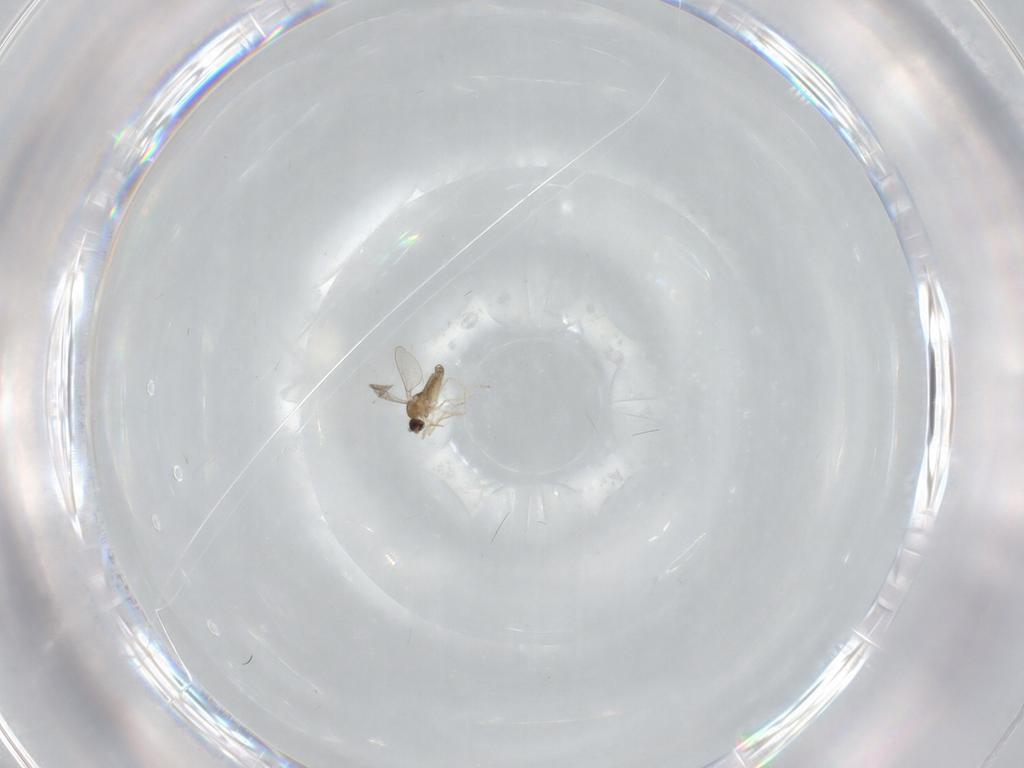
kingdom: Animalia
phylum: Arthropoda
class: Insecta
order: Diptera
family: Cecidomyiidae
